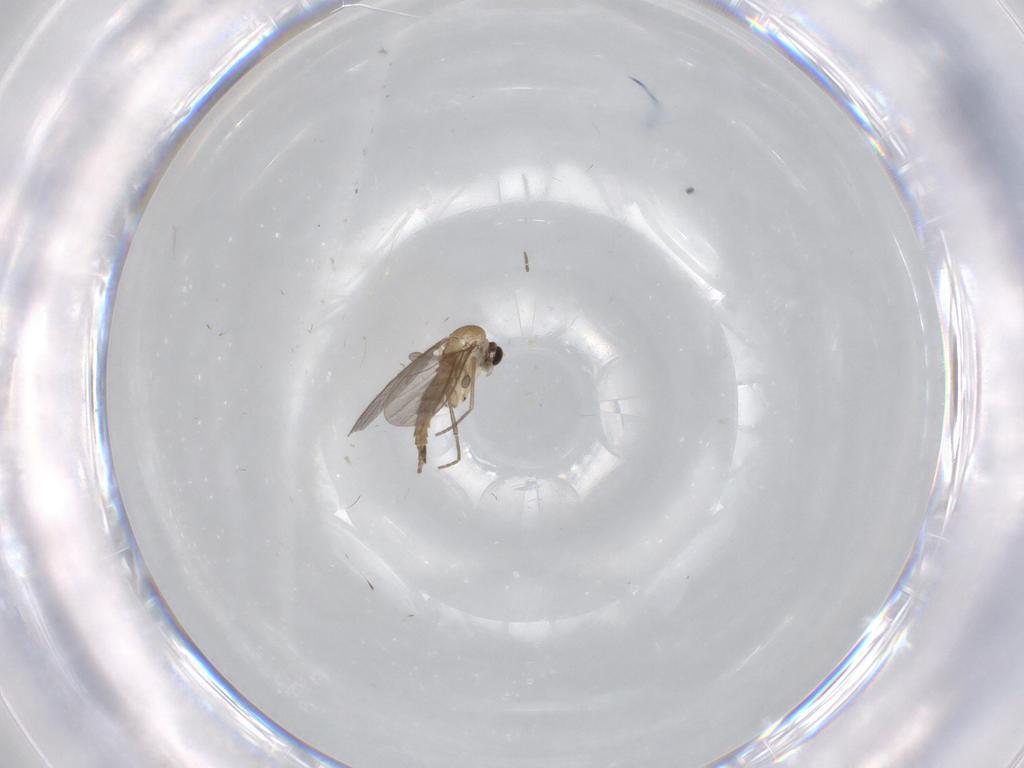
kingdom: Animalia
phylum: Arthropoda
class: Insecta
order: Diptera
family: Sciaridae
